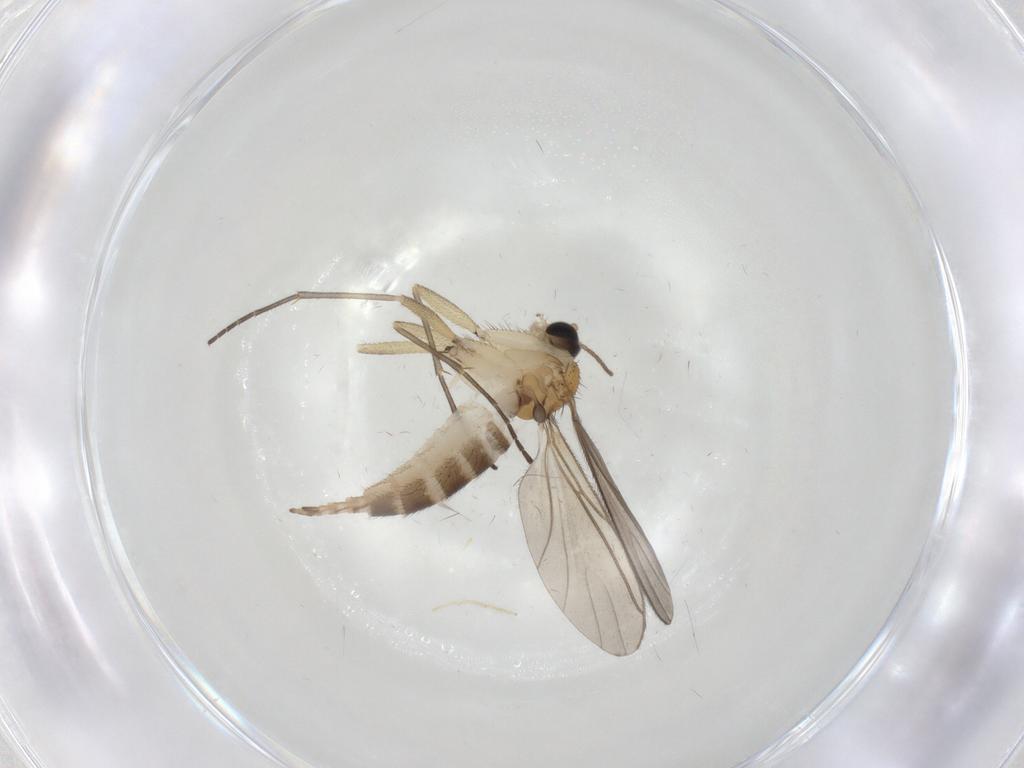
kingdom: Animalia
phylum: Arthropoda
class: Insecta
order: Diptera
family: Sciaridae
